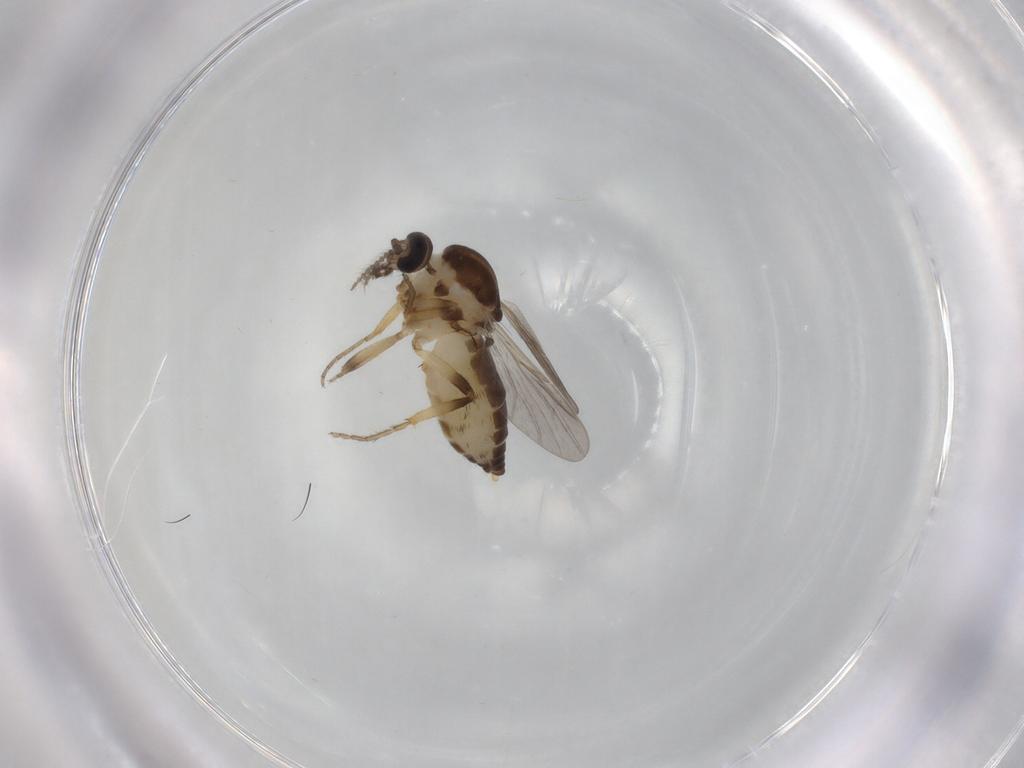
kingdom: Animalia
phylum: Arthropoda
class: Insecta
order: Diptera
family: Ceratopogonidae
